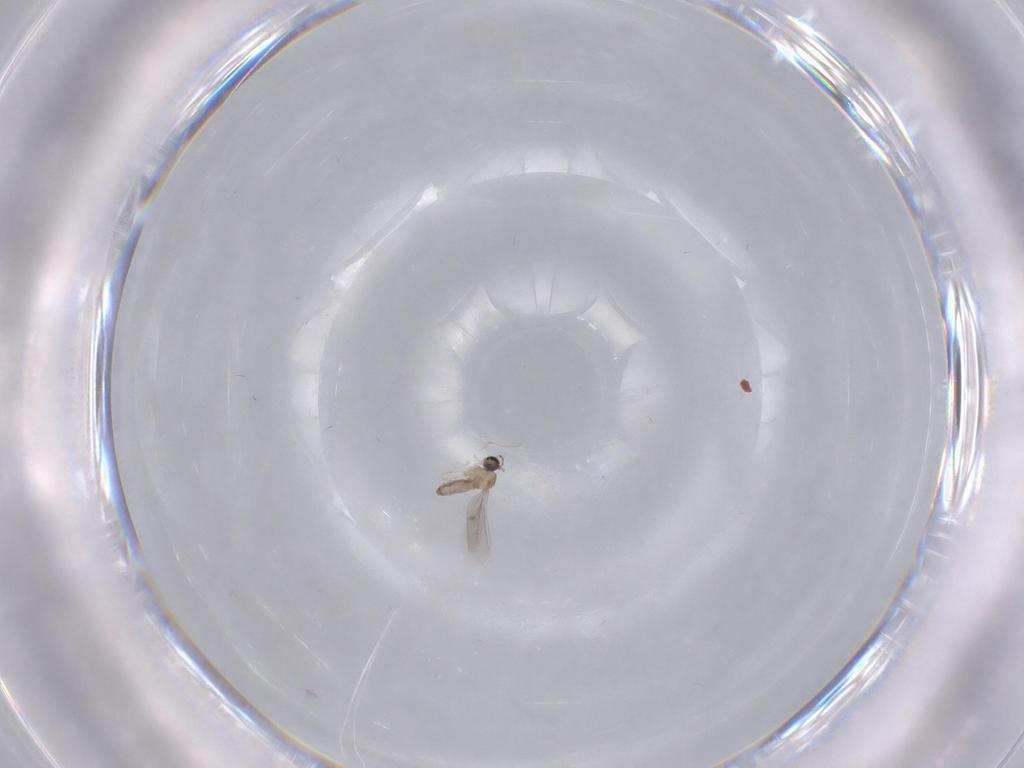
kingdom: Animalia
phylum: Arthropoda
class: Insecta
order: Diptera
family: Cecidomyiidae
